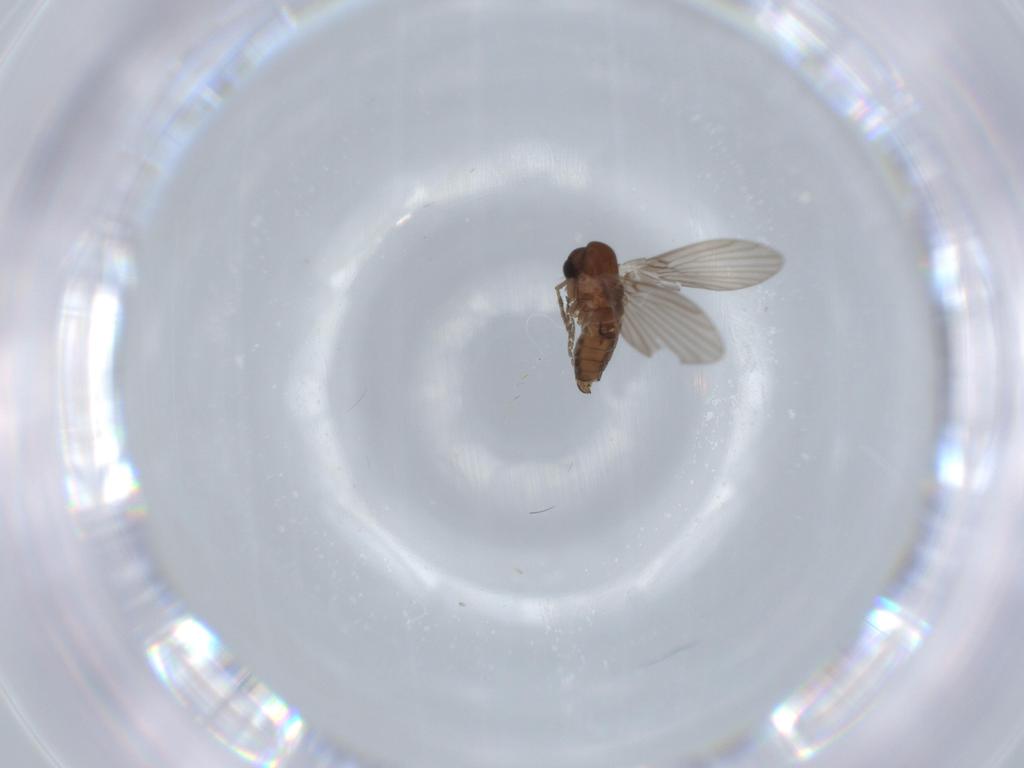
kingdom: Animalia
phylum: Arthropoda
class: Insecta
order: Diptera
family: Psychodidae
